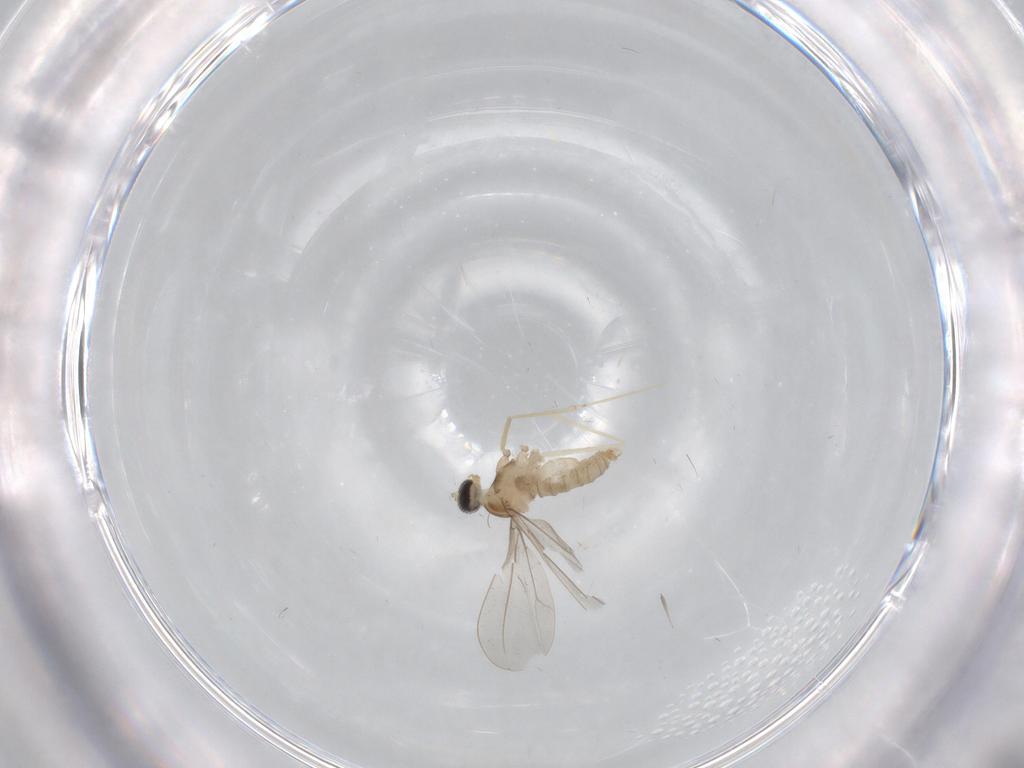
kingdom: Animalia
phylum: Arthropoda
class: Insecta
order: Diptera
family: Cecidomyiidae
